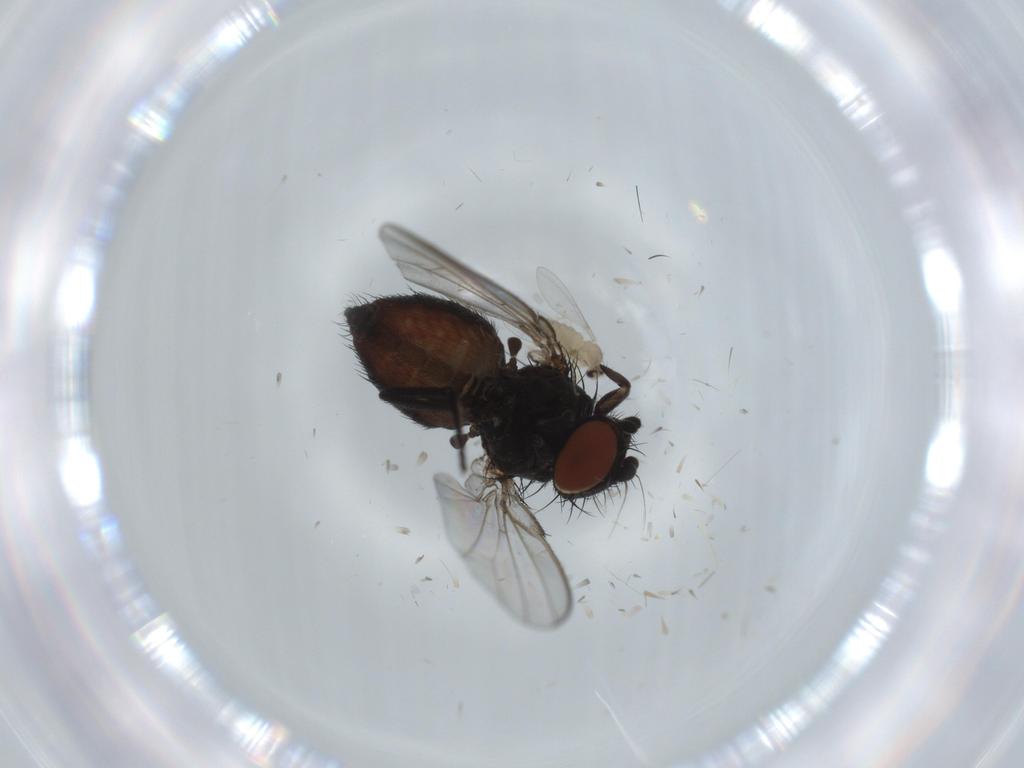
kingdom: Animalia
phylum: Arthropoda
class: Insecta
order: Diptera
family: Milichiidae
